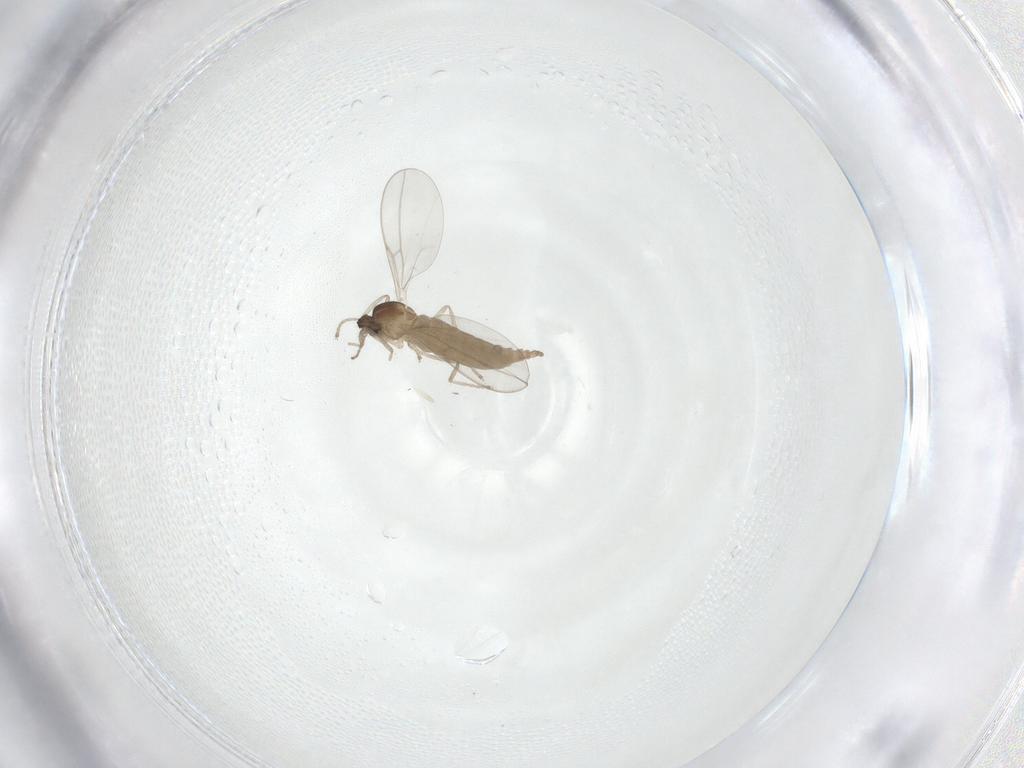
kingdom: Animalia
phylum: Arthropoda
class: Insecta
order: Diptera
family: Cecidomyiidae
